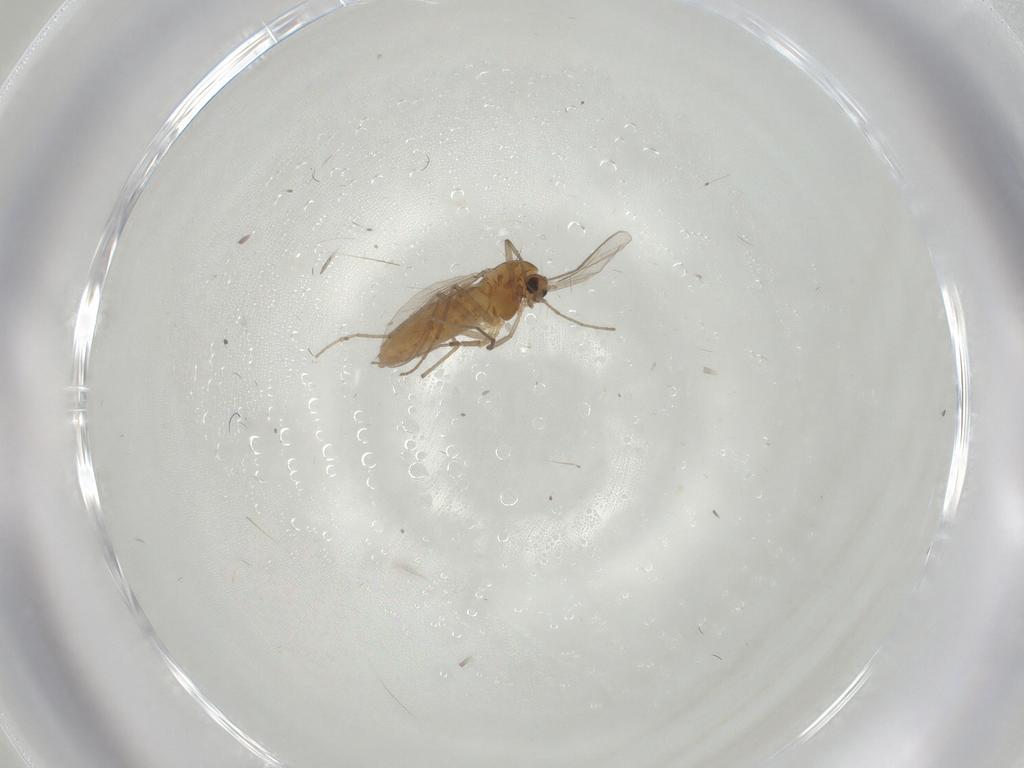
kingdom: Animalia
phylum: Arthropoda
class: Insecta
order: Diptera
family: Chironomidae
